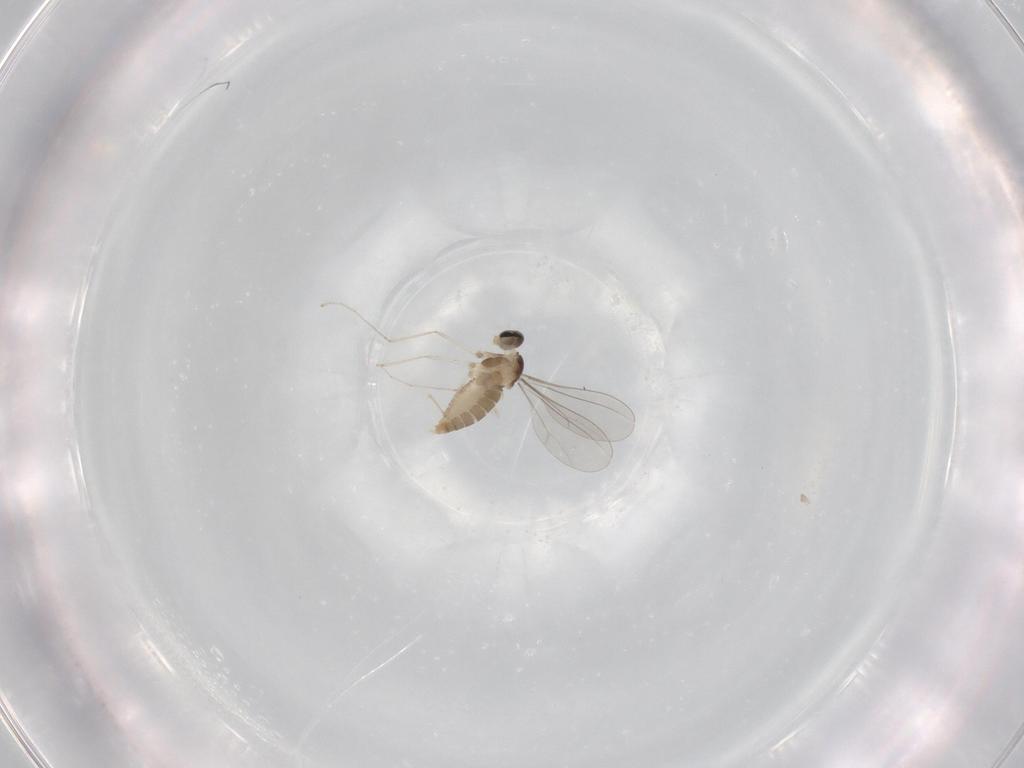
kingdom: Animalia
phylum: Arthropoda
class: Insecta
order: Diptera
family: Cecidomyiidae
